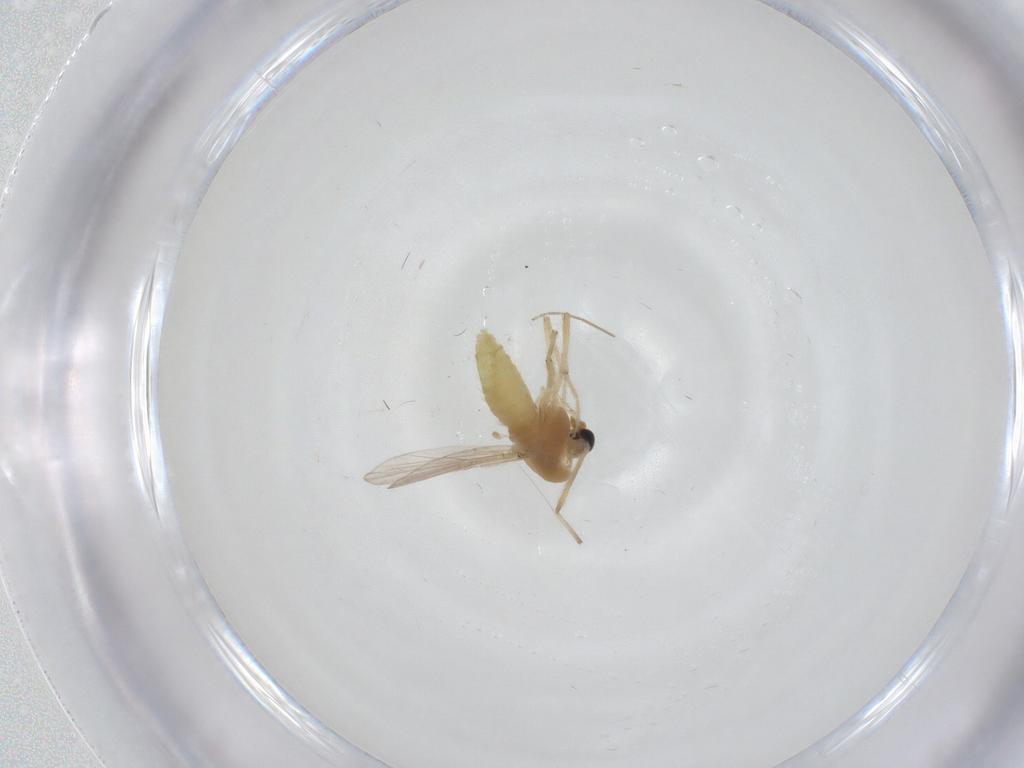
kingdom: Animalia
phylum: Arthropoda
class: Insecta
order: Diptera
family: Chironomidae
